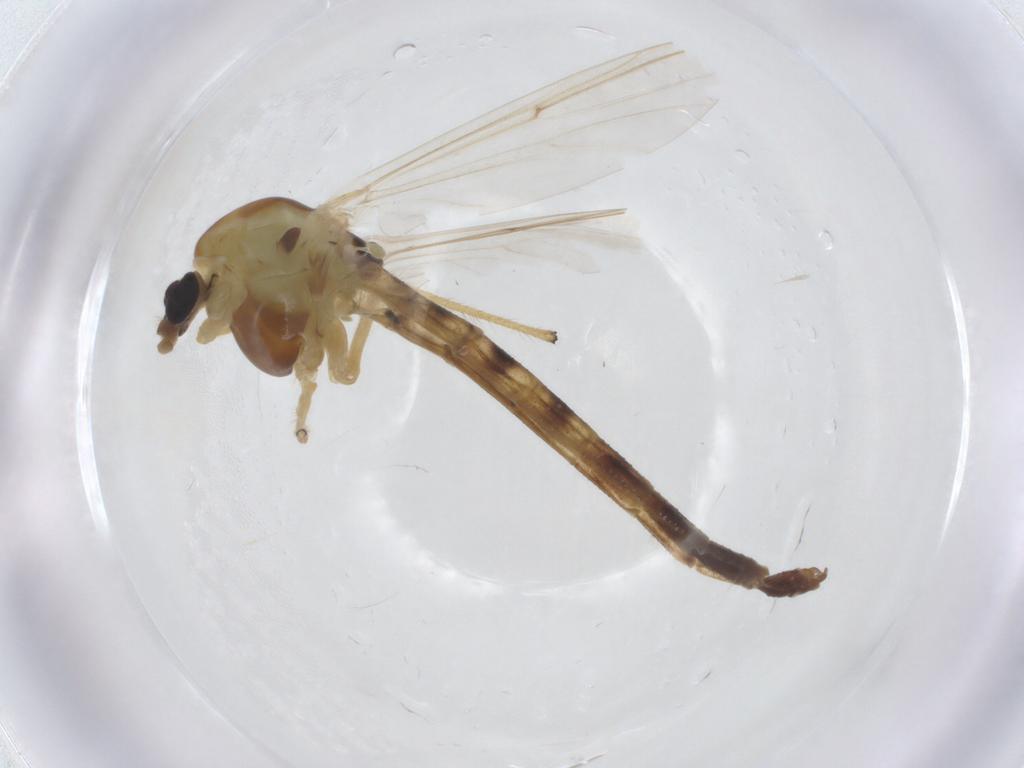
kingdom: Animalia
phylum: Arthropoda
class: Insecta
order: Diptera
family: Chironomidae
